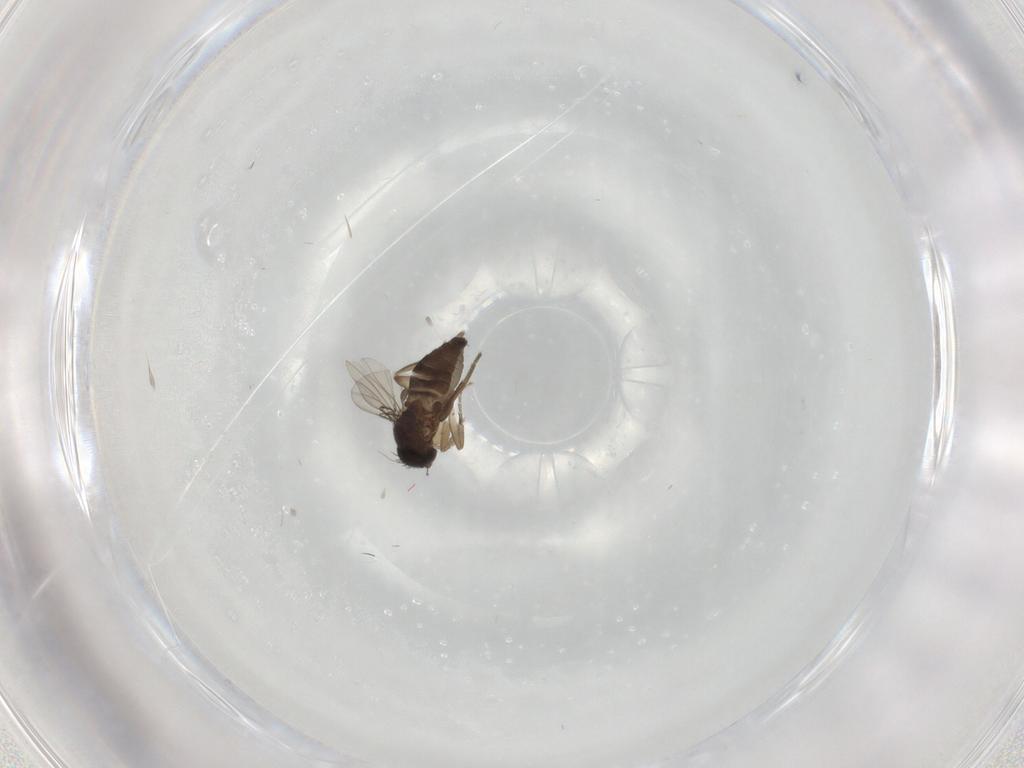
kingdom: Animalia
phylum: Arthropoda
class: Insecta
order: Diptera
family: Phoridae
